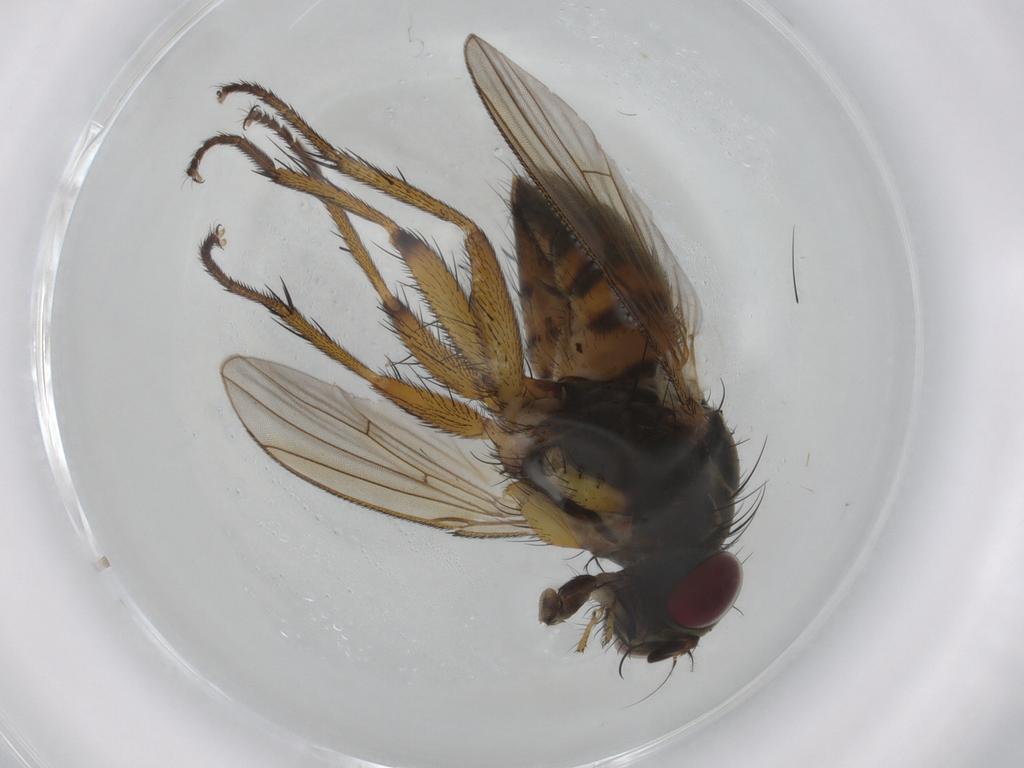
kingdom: Animalia
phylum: Arthropoda
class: Insecta
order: Diptera
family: Muscidae
